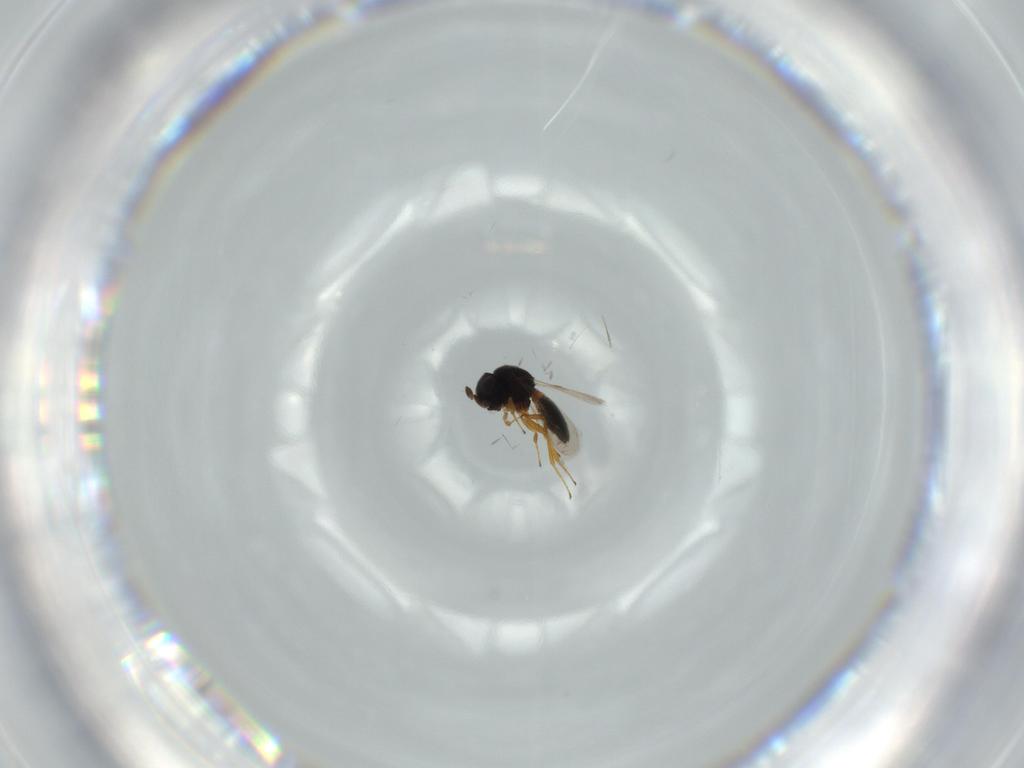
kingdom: Animalia
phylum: Arthropoda
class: Insecta
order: Hymenoptera
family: Scelionidae
